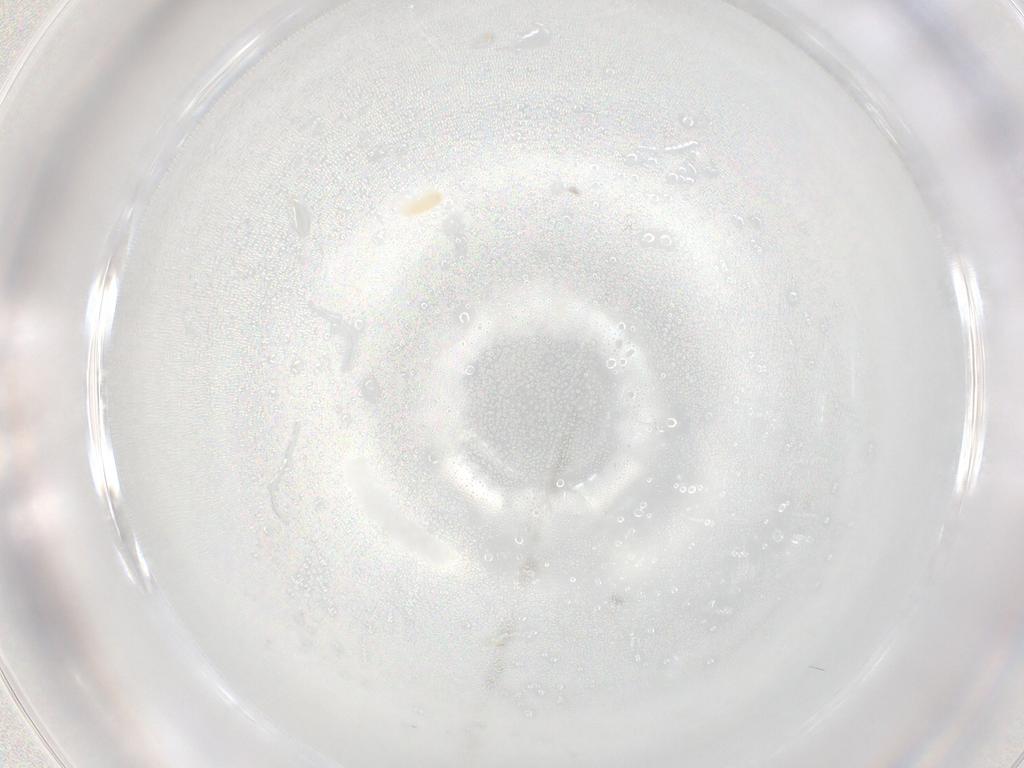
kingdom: Animalia
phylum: Arthropoda
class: Arachnida
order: Trombidiformes
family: Eupodidae
